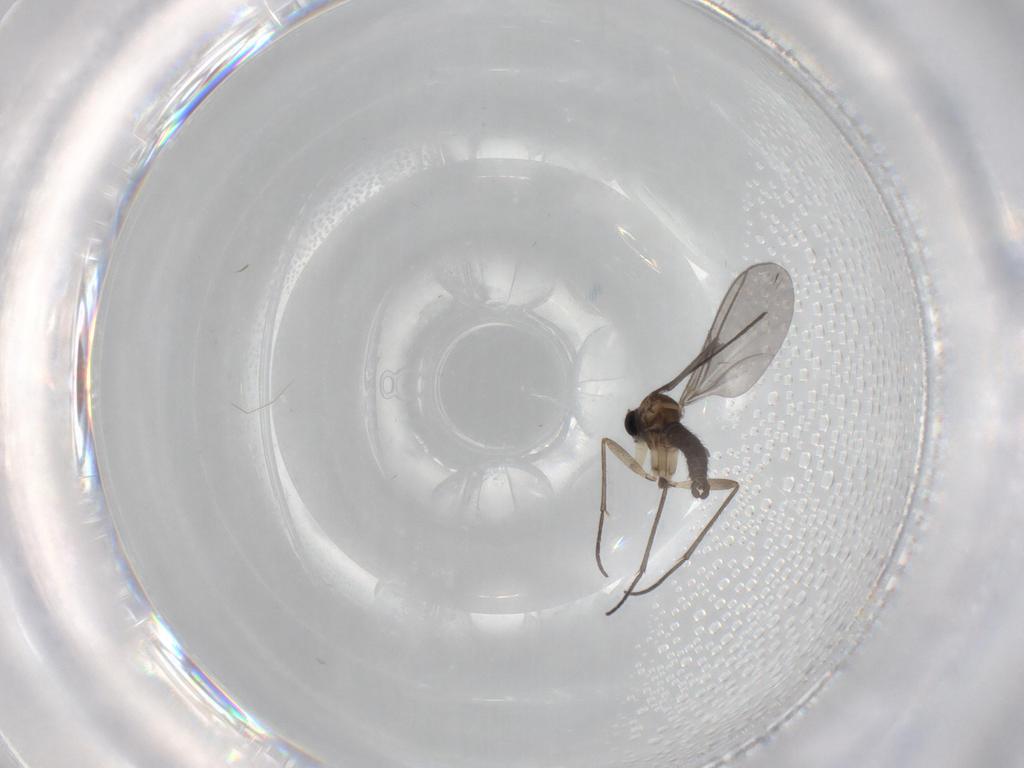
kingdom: Animalia
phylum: Arthropoda
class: Insecta
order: Diptera
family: Sciaridae
